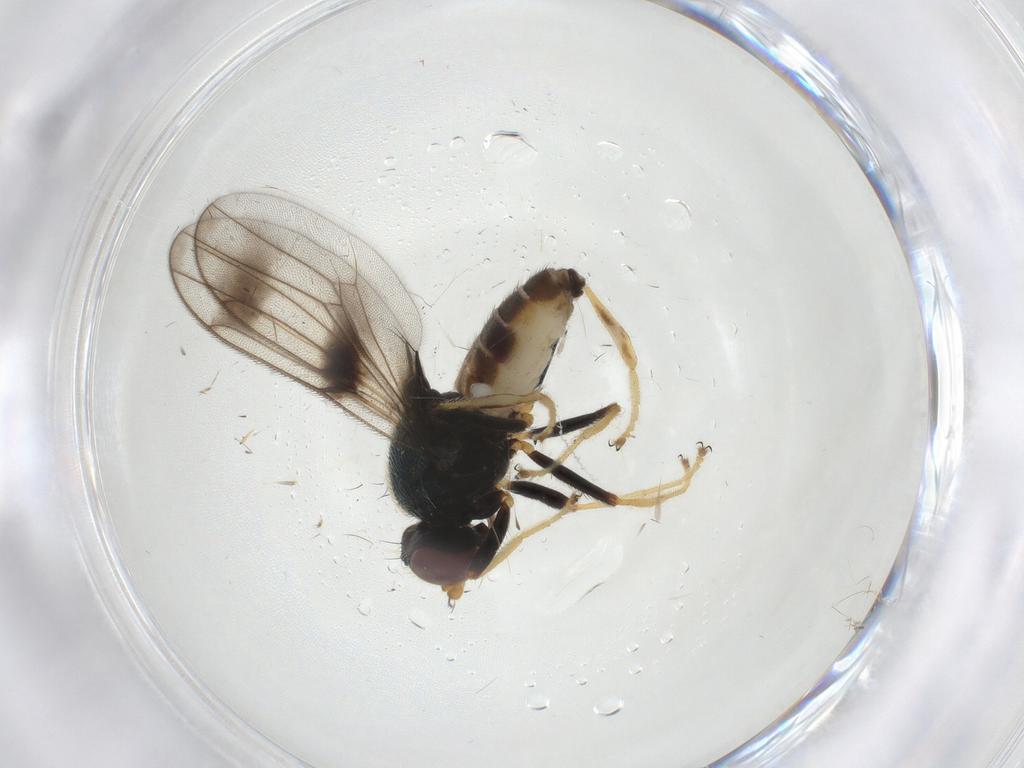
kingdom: Animalia
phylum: Arthropoda
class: Insecta
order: Diptera
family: Chloropidae
